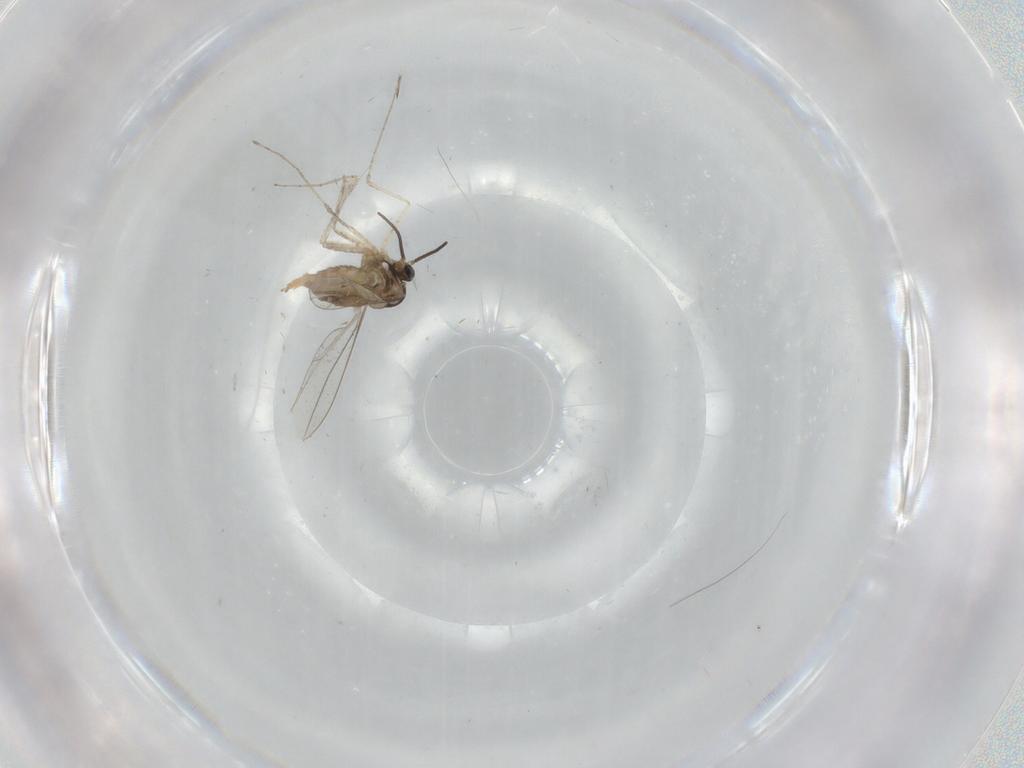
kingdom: Animalia
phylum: Arthropoda
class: Insecta
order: Diptera
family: Cecidomyiidae
